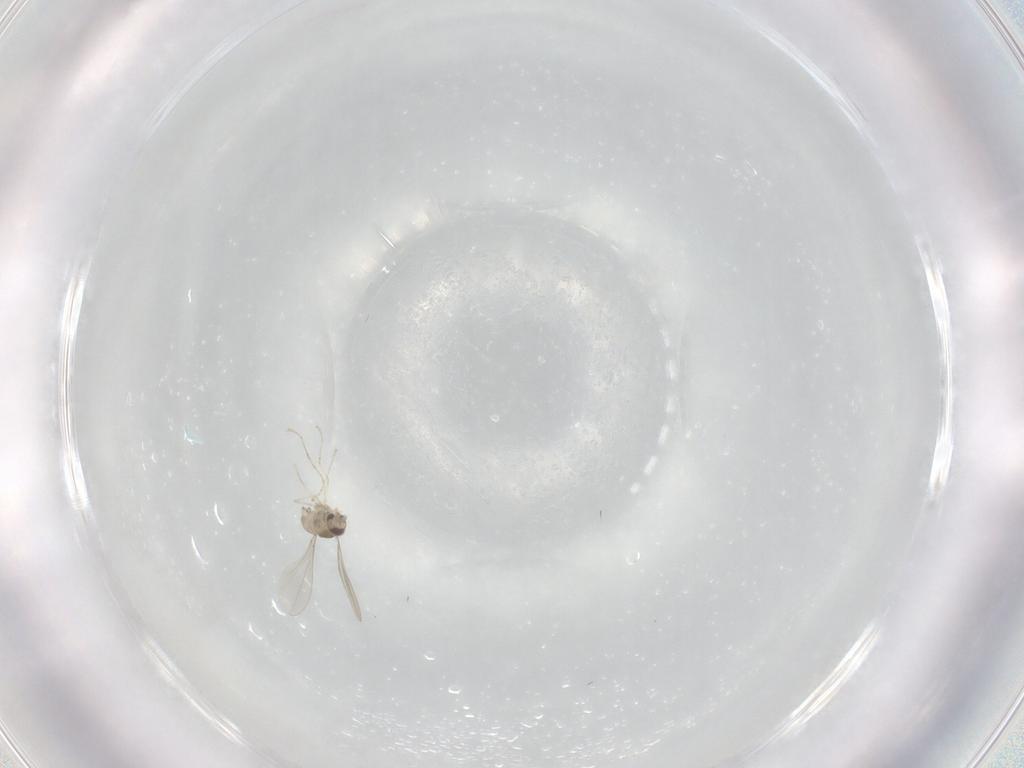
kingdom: Animalia
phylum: Arthropoda
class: Insecta
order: Diptera
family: Cecidomyiidae
